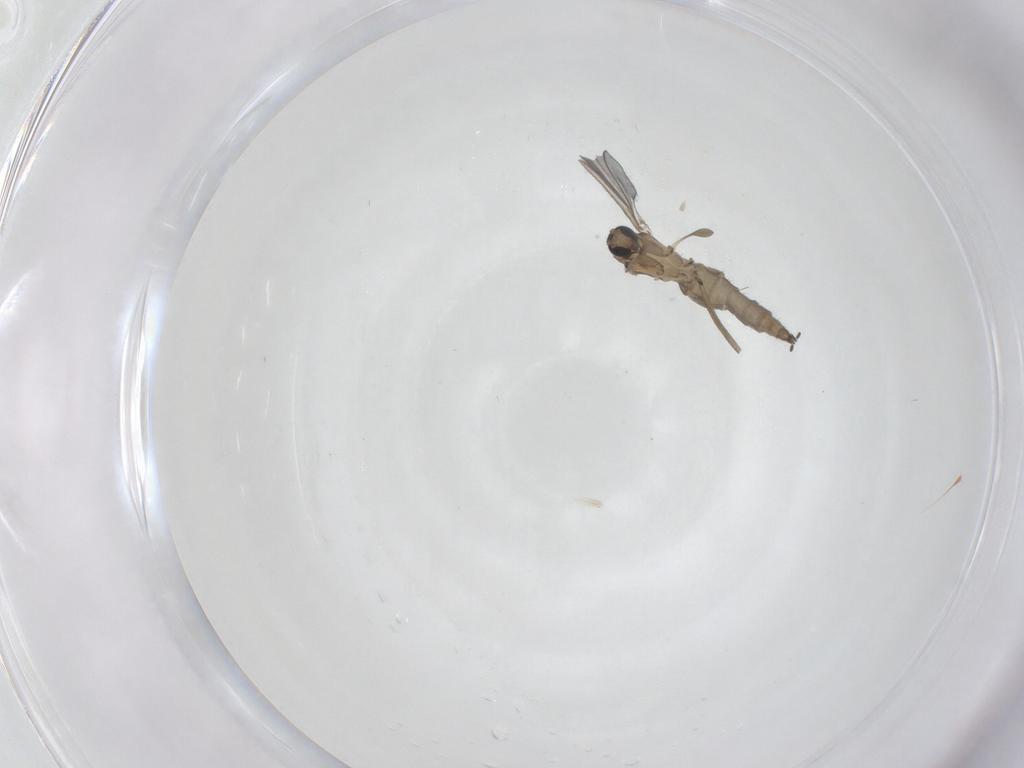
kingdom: Animalia
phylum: Arthropoda
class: Insecta
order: Diptera
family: Sciaridae
